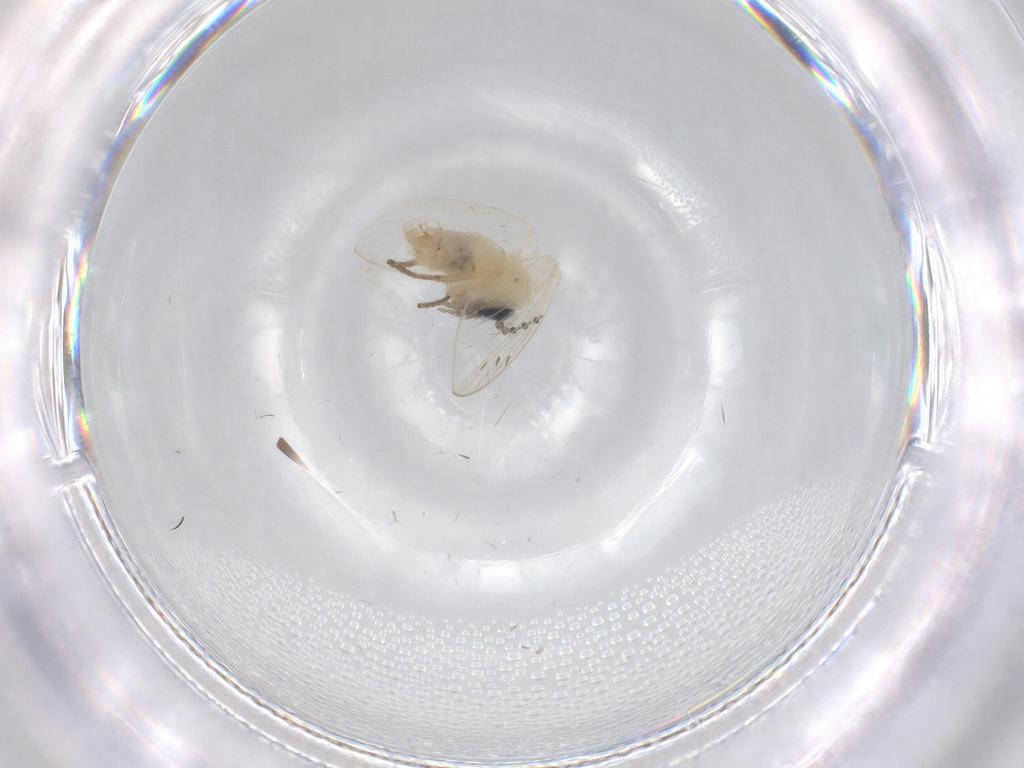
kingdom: Animalia
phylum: Arthropoda
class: Insecta
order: Diptera
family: Psychodidae
